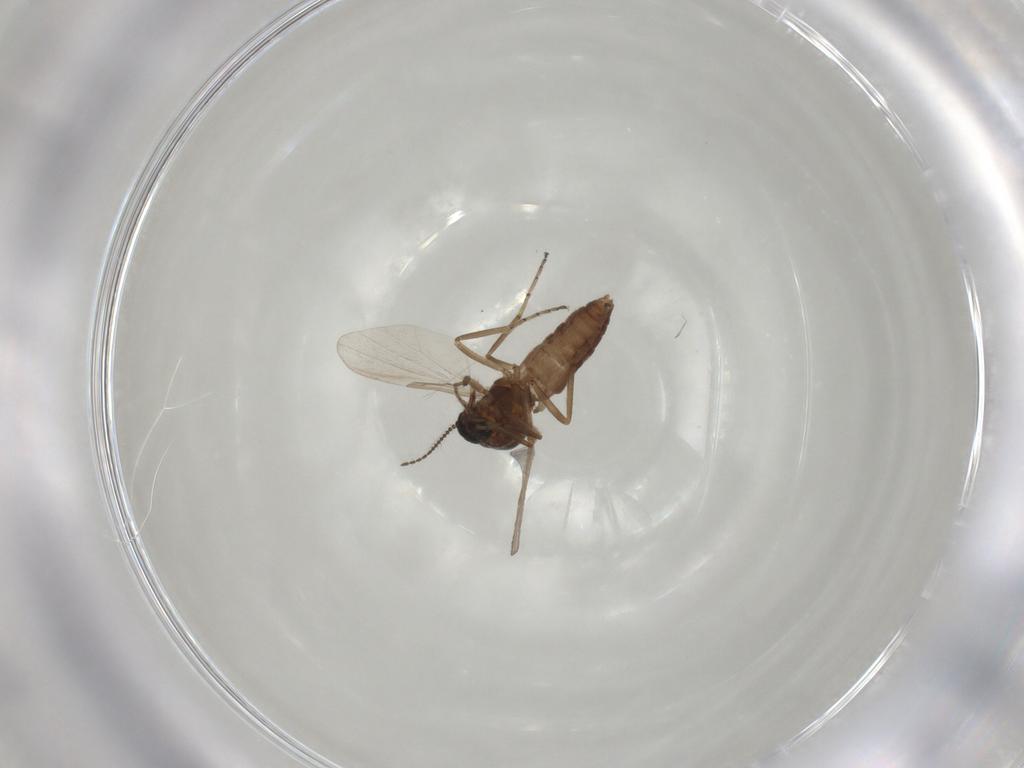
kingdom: Animalia
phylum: Arthropoda
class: Insecta
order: Diptera
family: Ceratopogonidae
